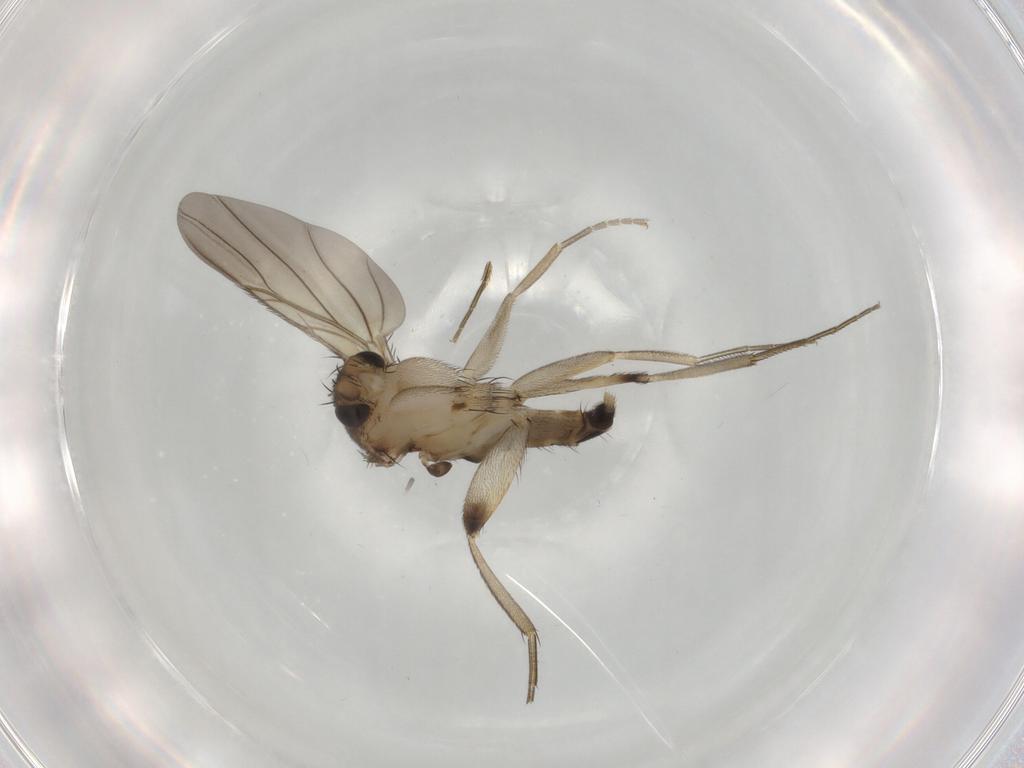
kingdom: Animalia
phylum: Arthropoda
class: Insecta
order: Diptera
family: Phoridae
